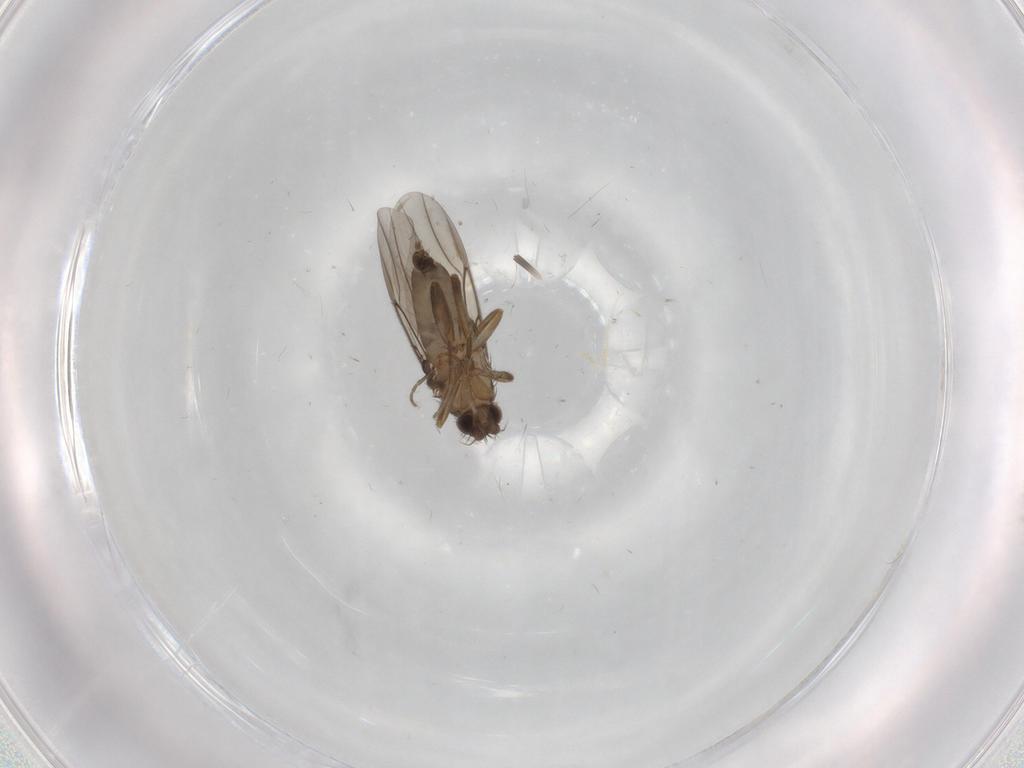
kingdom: Animalia
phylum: Arthropoda
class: Insecta
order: Diptera
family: Phoridae
